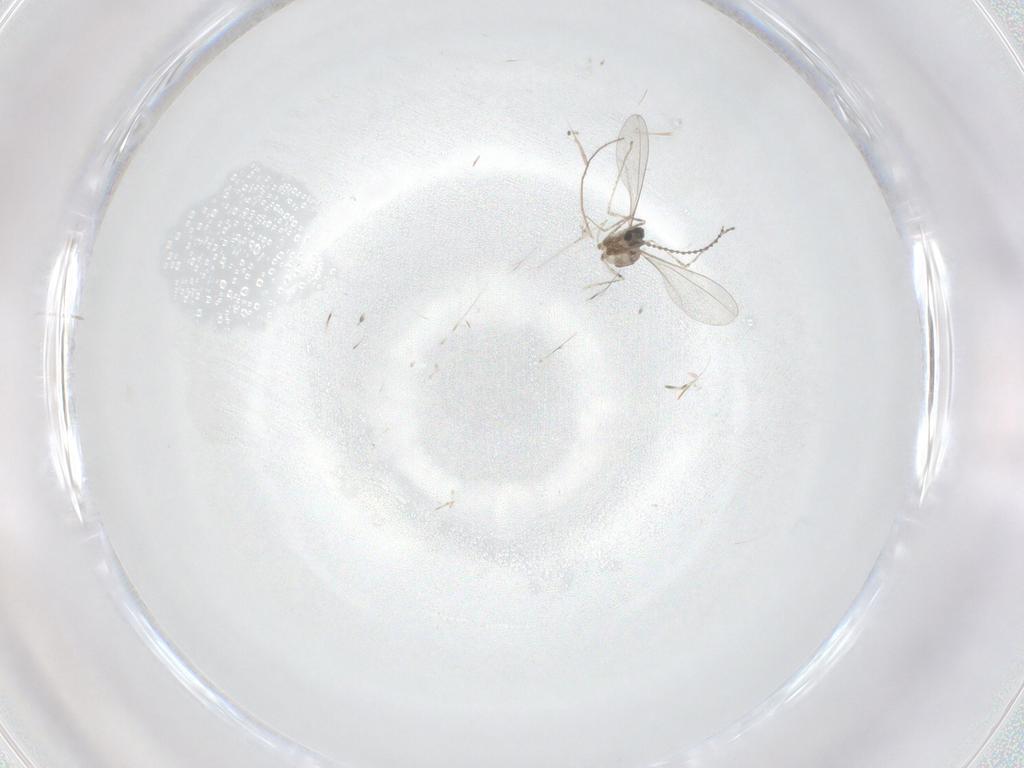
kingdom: Animalia
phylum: Arthropoda
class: Insecta
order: Diptera
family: Cecidomyiidae
